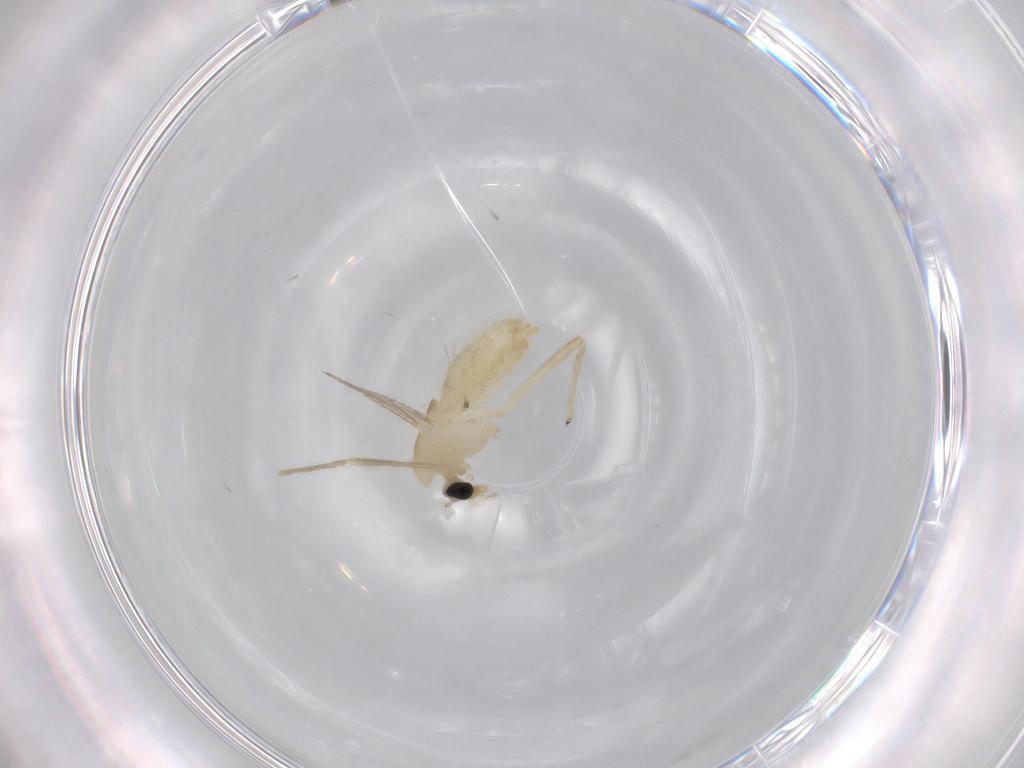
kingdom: Animalia
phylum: Arthropoda
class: Insecta
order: Diptera
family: Chironomidae
